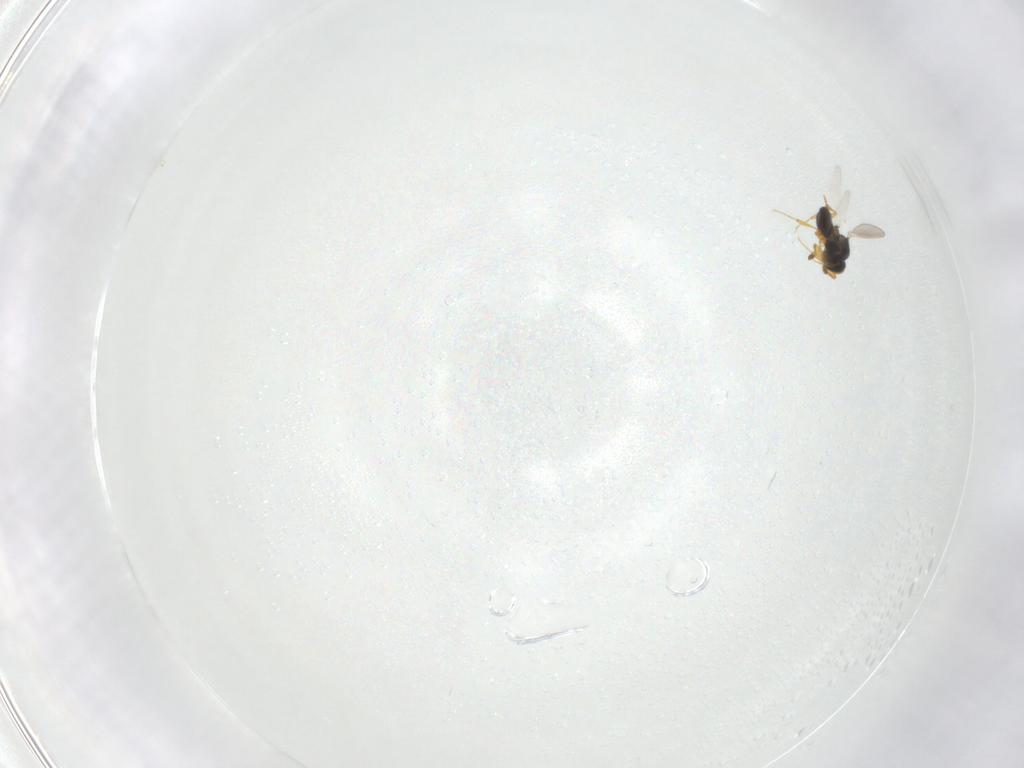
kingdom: Animalia
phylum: Arthropoda
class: Insecta
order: Hymenoptera
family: Platygastridae
